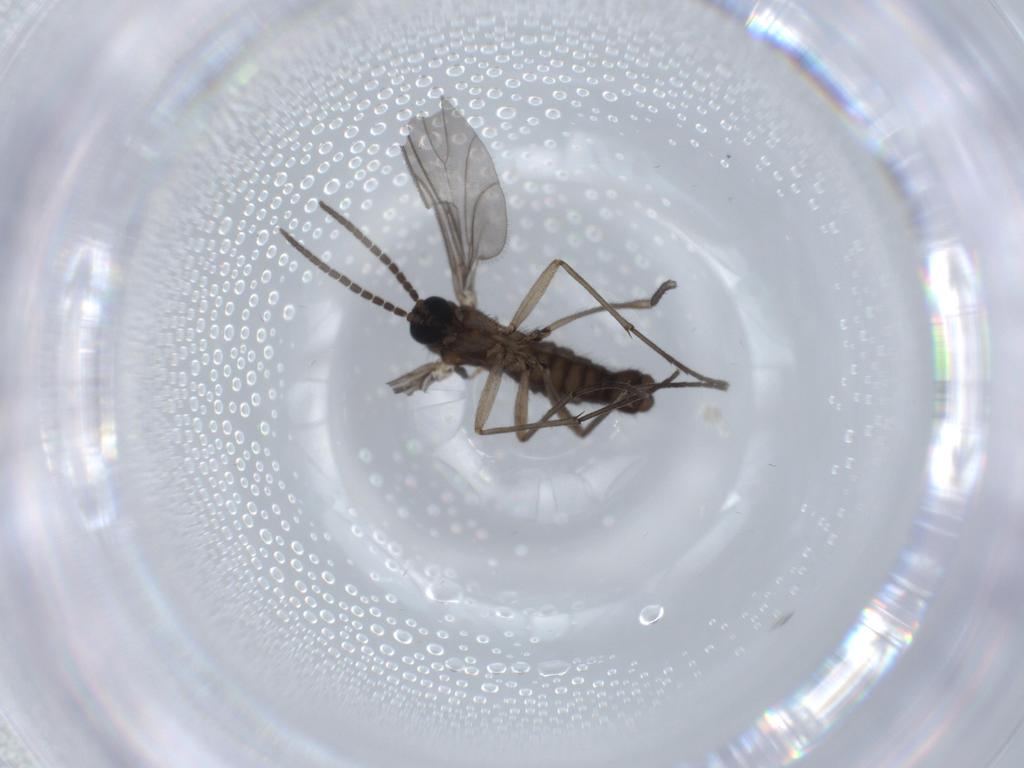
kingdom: Animalia
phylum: Arthropoda
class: Insecta
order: Diptera
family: Sciaridae
